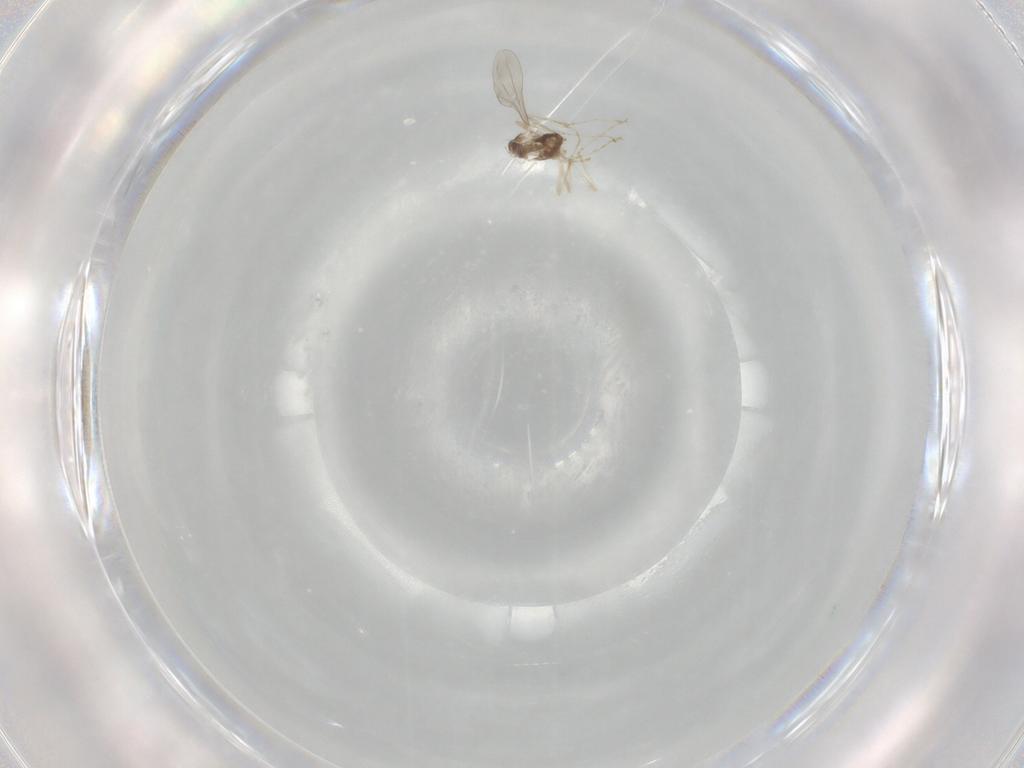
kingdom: Animalia
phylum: Arthropoda
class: Insecta
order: Diptera
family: Cecidomyiidae
